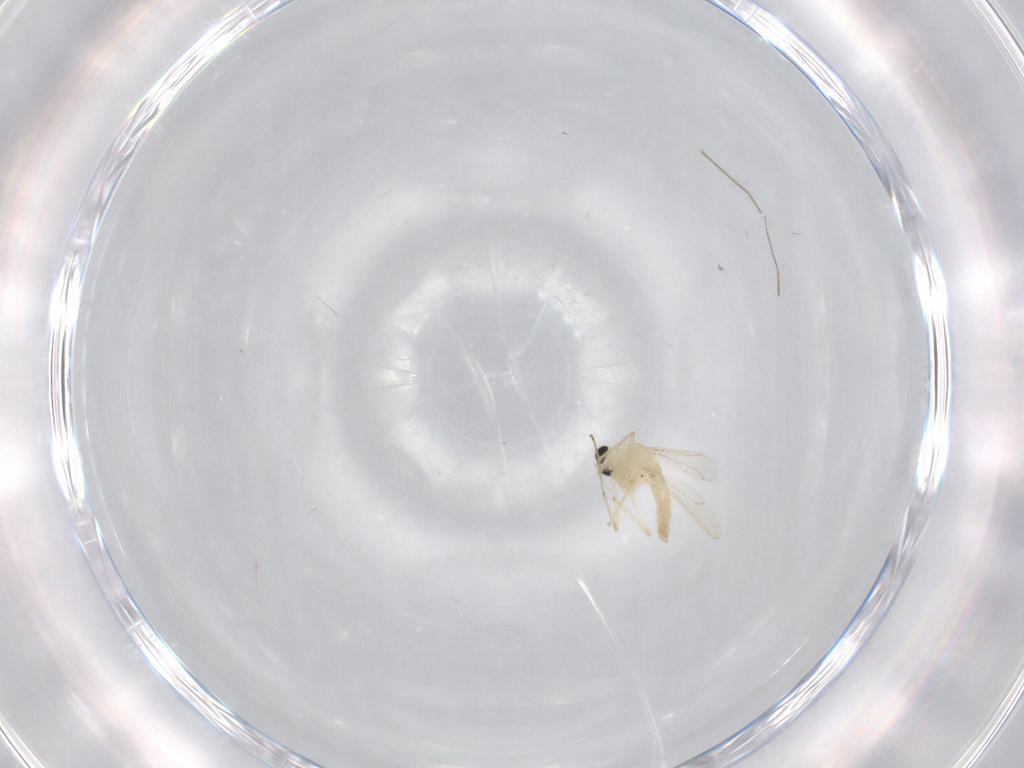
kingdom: Animalia
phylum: Arthropoda
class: Insecta
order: Diptera
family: Chironomidae
